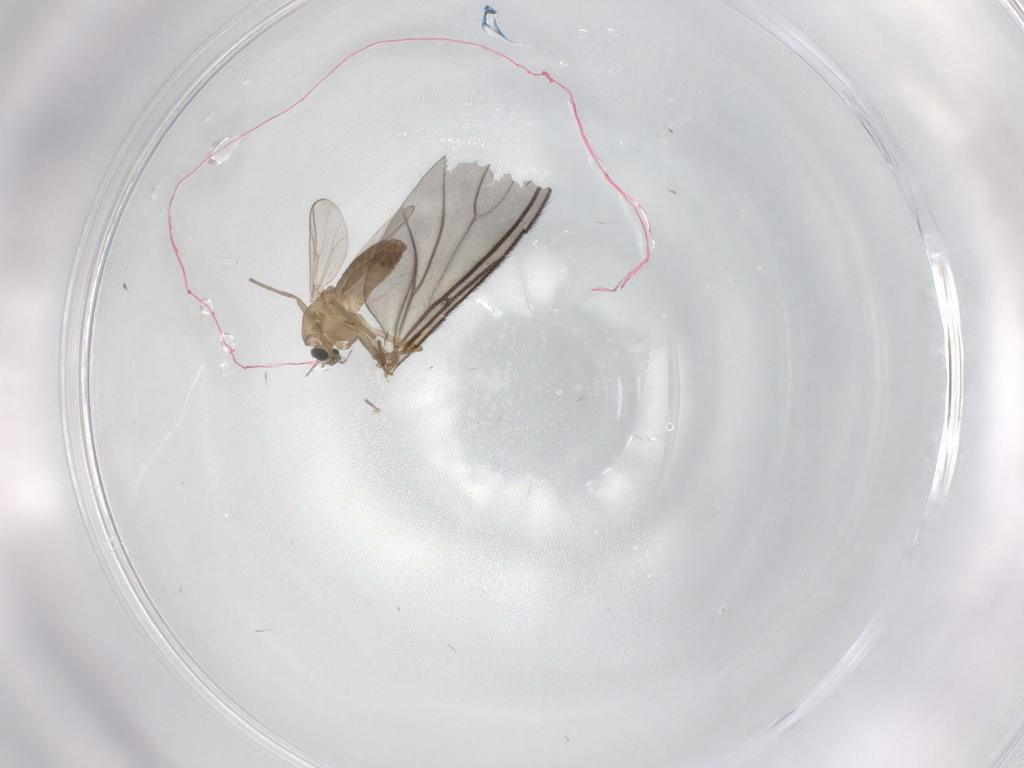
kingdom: Animalia
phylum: Arthropoda
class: Insecta
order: Diptera
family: Chironomidae
